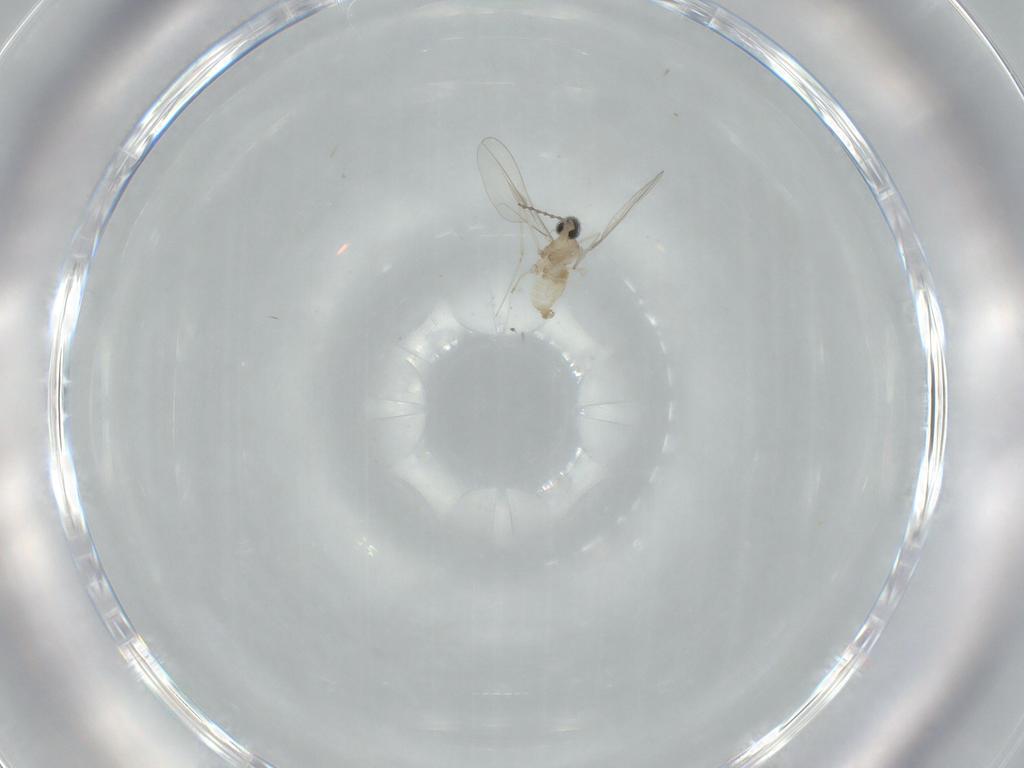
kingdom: Animalia
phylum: Arthropoda
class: Insecta
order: Diptera
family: Cecidomyiidae
